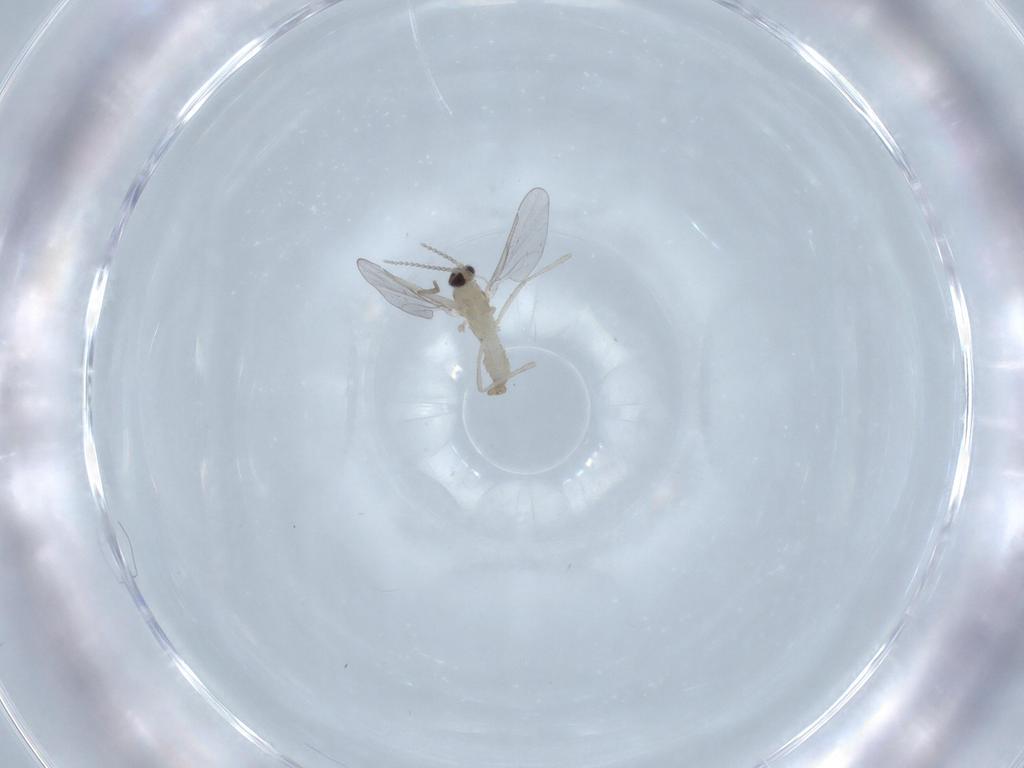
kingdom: Animalia
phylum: Arthropoda
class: Insecta
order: Diptera
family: Cecidomyiidae
